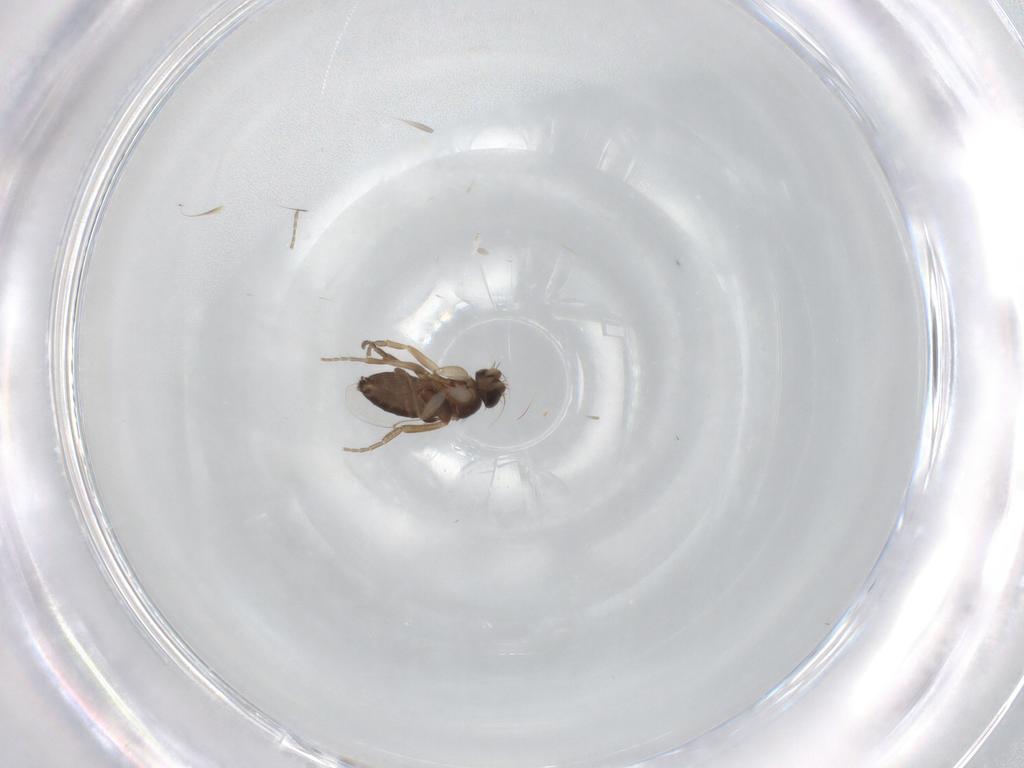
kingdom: Animalia
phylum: Arthropoda
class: Insecta
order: Diptera
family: Phoridae
